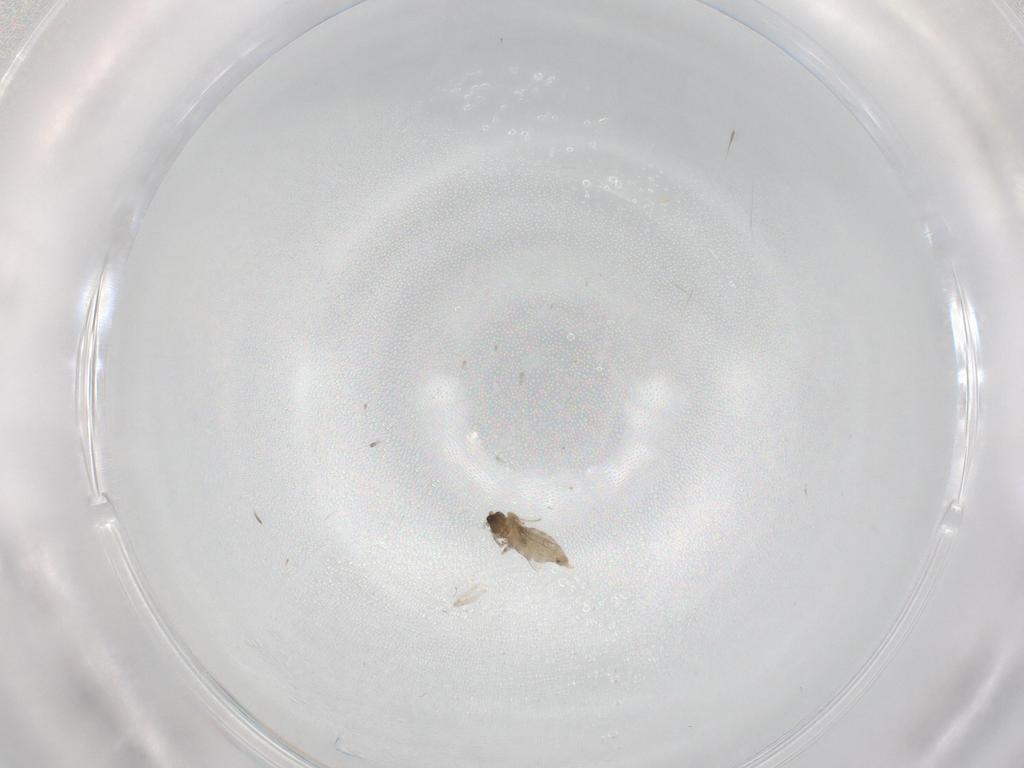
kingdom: Animalia
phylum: Arthropoda
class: Insecta
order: Diptera
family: Cecidomyiidae
